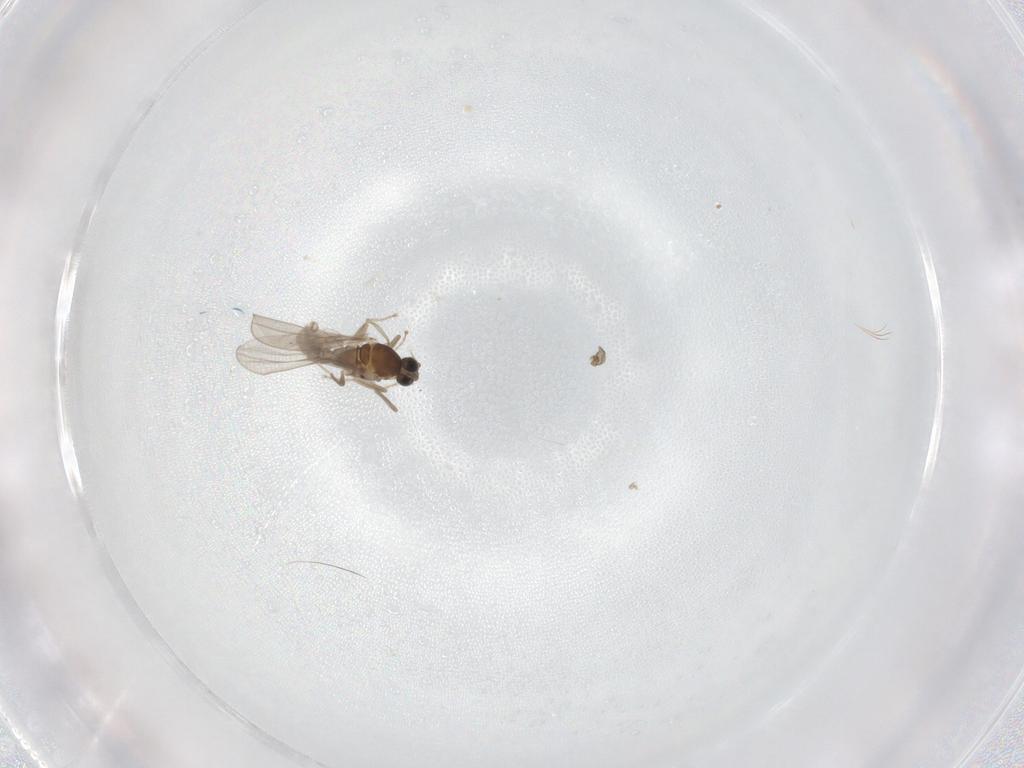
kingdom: Animalia
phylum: Arthropoda
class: Insecta
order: Diptera
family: Cecidomyiidae
